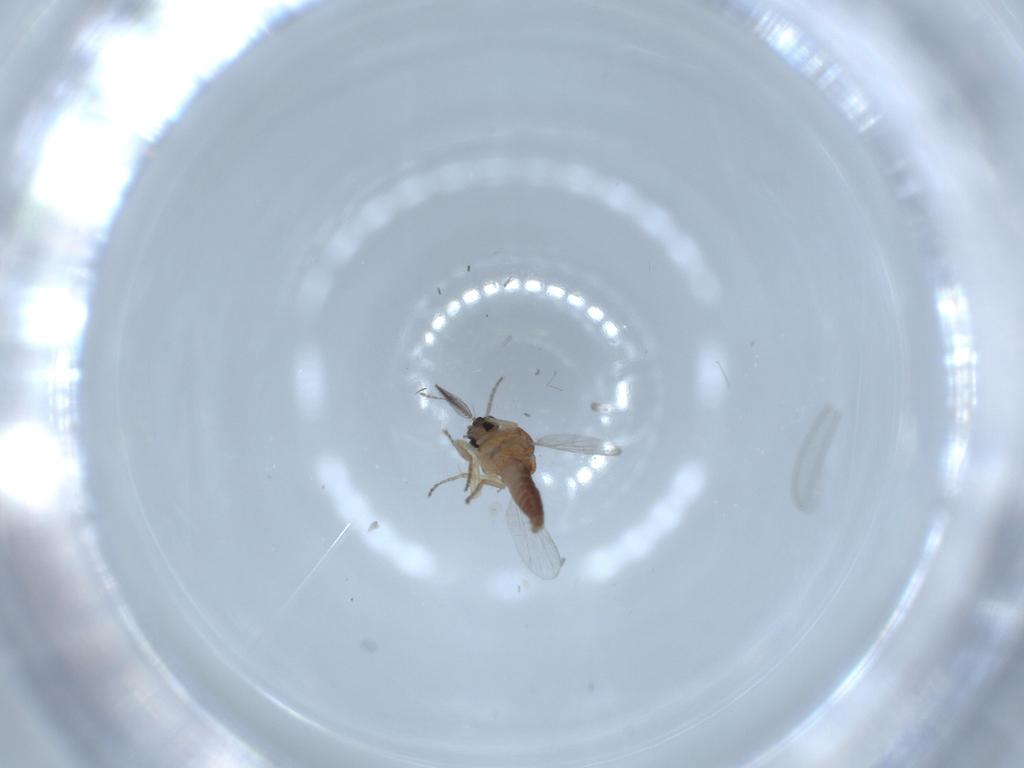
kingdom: Animalia
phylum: Arthropoda
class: Insecta
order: Diptera
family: Ceratopogonidae
